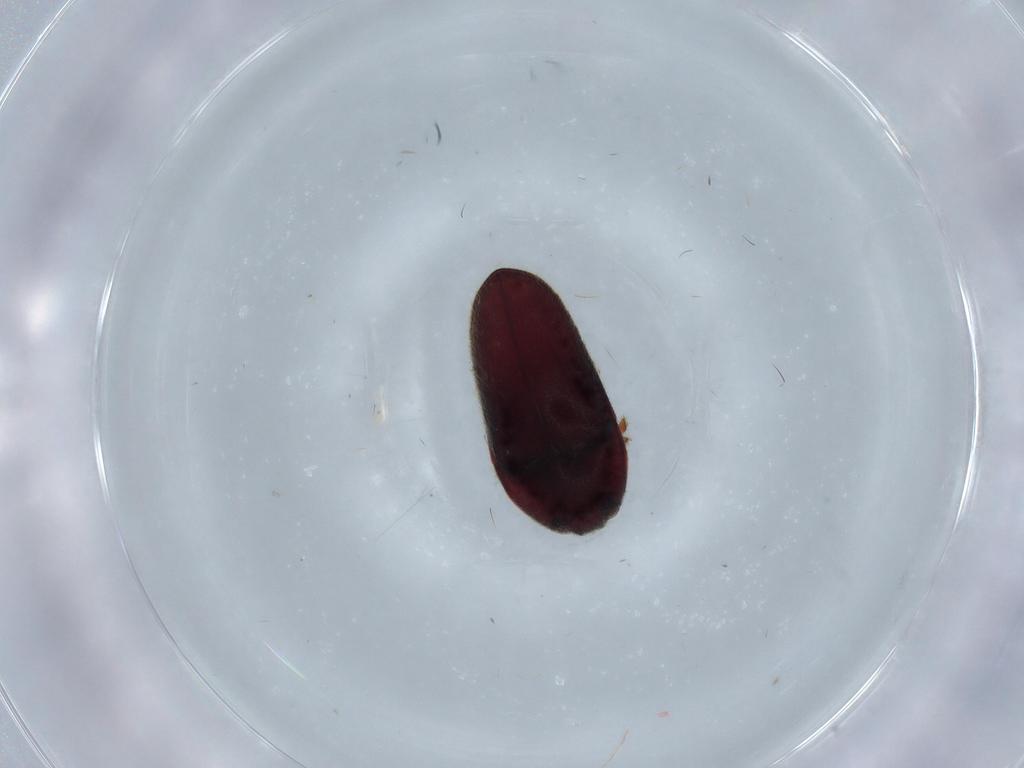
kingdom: Animalia
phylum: Arthropoda
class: Insecta
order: Coleoptera
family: Throscidae
